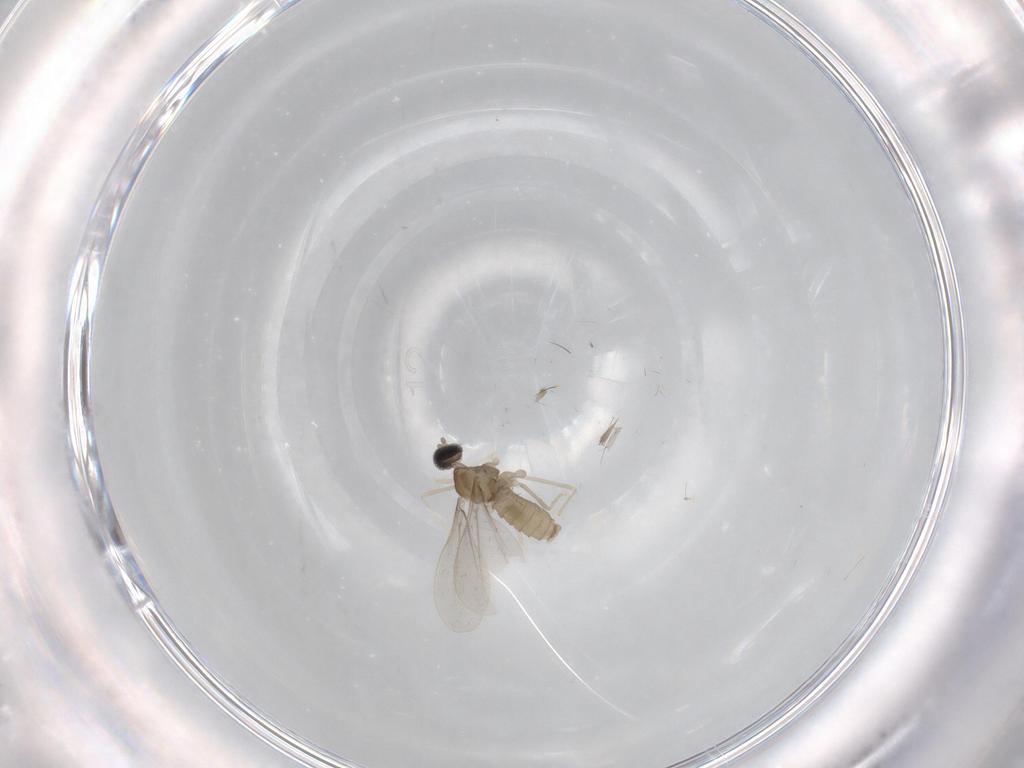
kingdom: Animalia
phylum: Arthropoda
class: Insecta
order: Diptera
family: Cecidomyiidae
